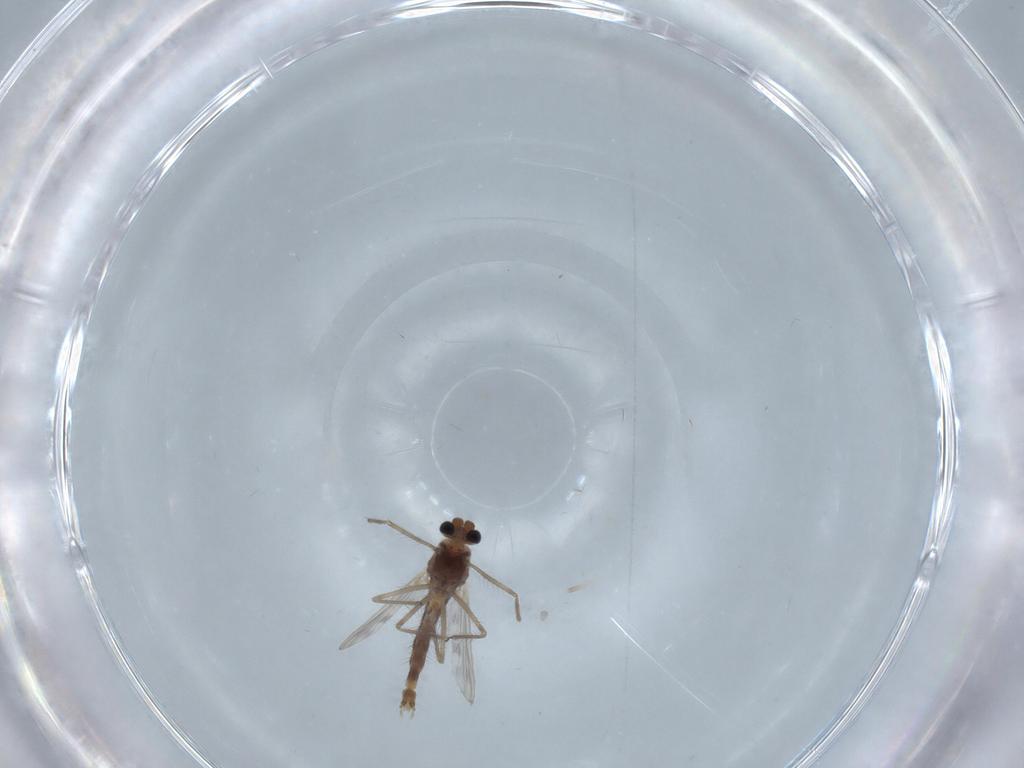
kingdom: Animalia
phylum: Arthropoda
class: Insecta
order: Diptera
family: Chironomidae
